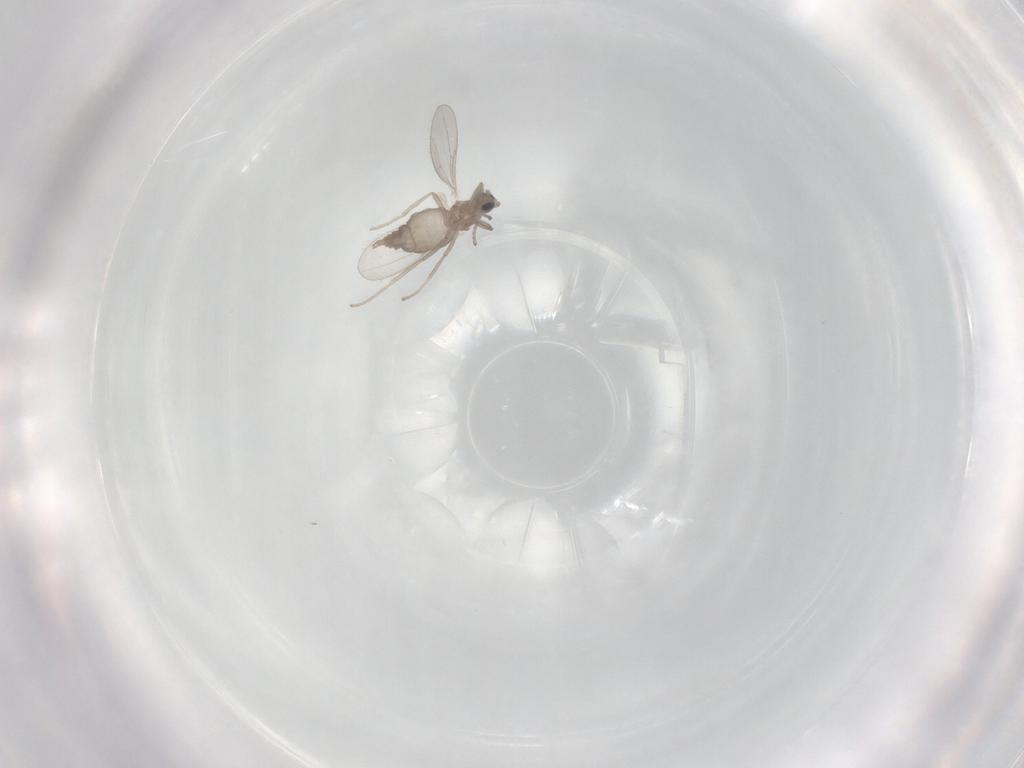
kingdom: Animalia
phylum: Arthropoda
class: Insecta
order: Diptera
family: Cecidomyiidae
